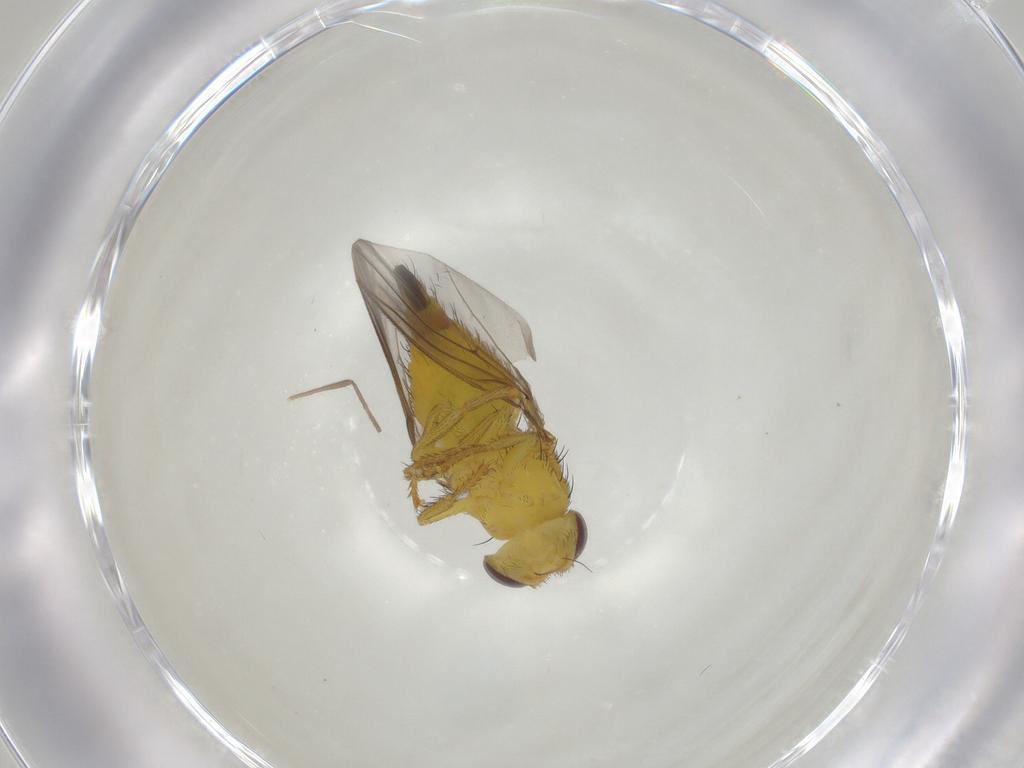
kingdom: Animalia
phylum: Arthropoda
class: Insecta
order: Diptera
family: Fergusoninidae
